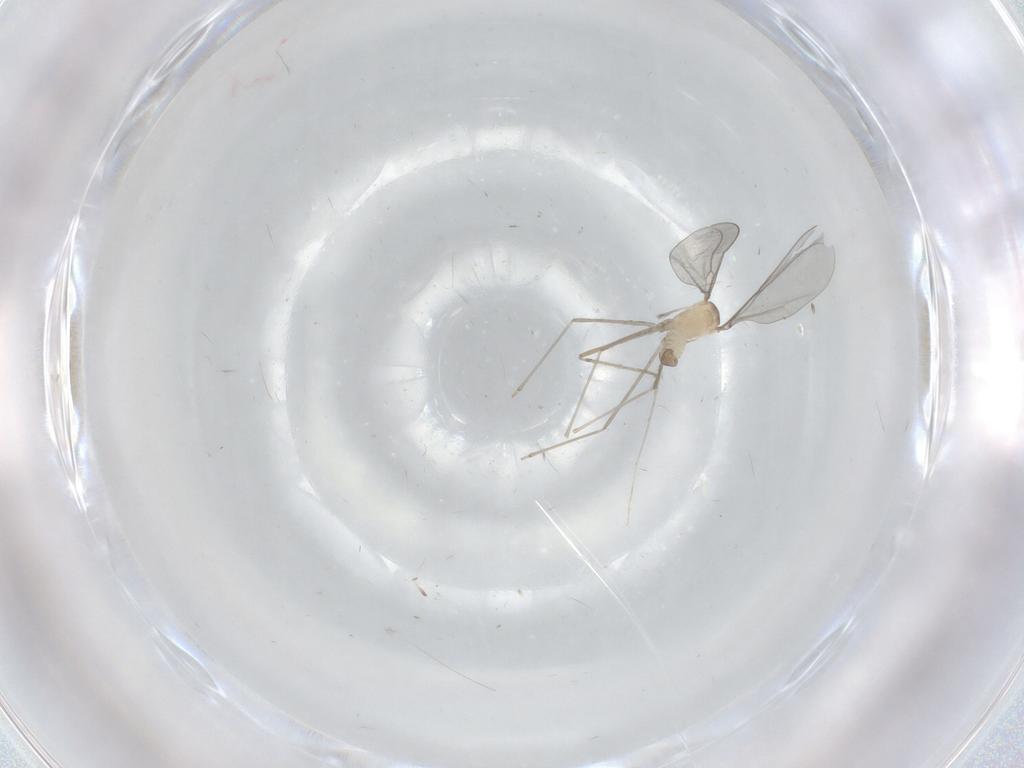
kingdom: Animalia
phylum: Arthropoda
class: Insecta
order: Diptera
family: Cecidomyiidae
